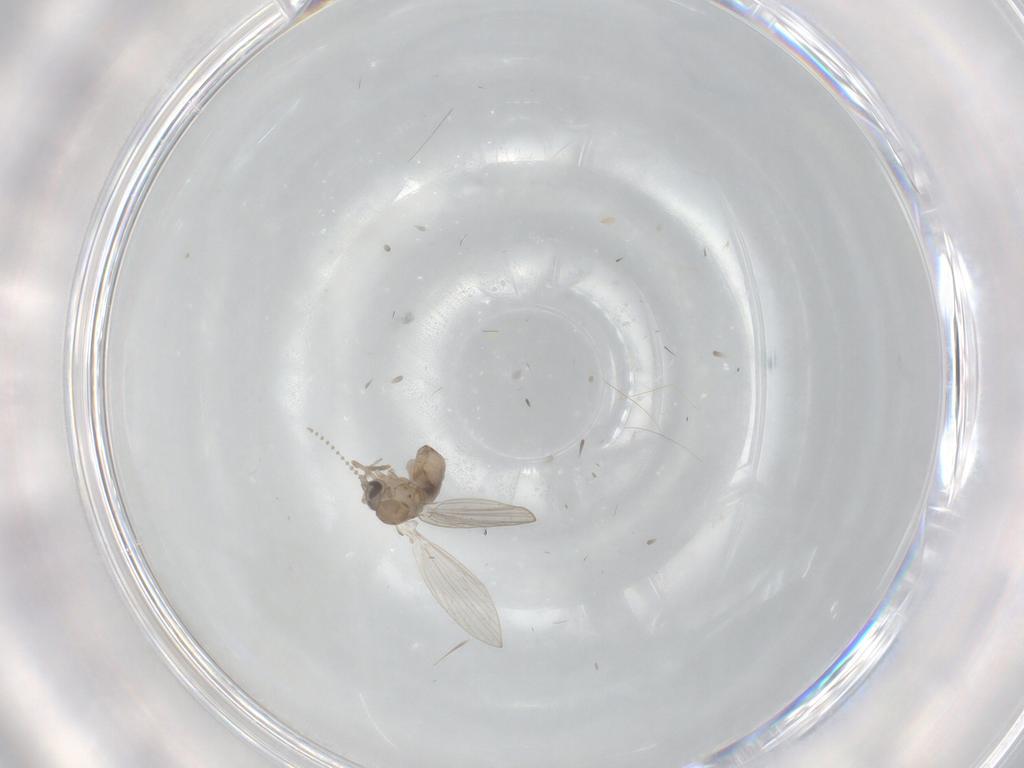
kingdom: Animalia
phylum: Arthropoda
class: Insecta
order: Diptera
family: Psychodidae
